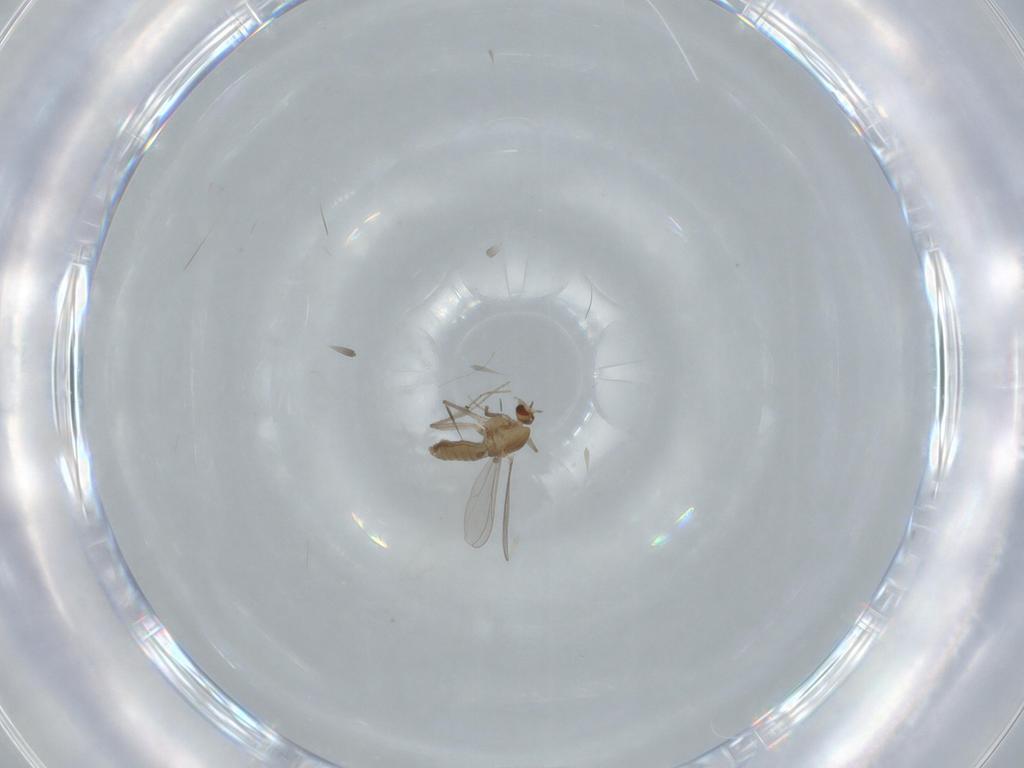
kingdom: Animalia
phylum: Arthropoda
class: Insecta
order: Diptera
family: Chironomidae
